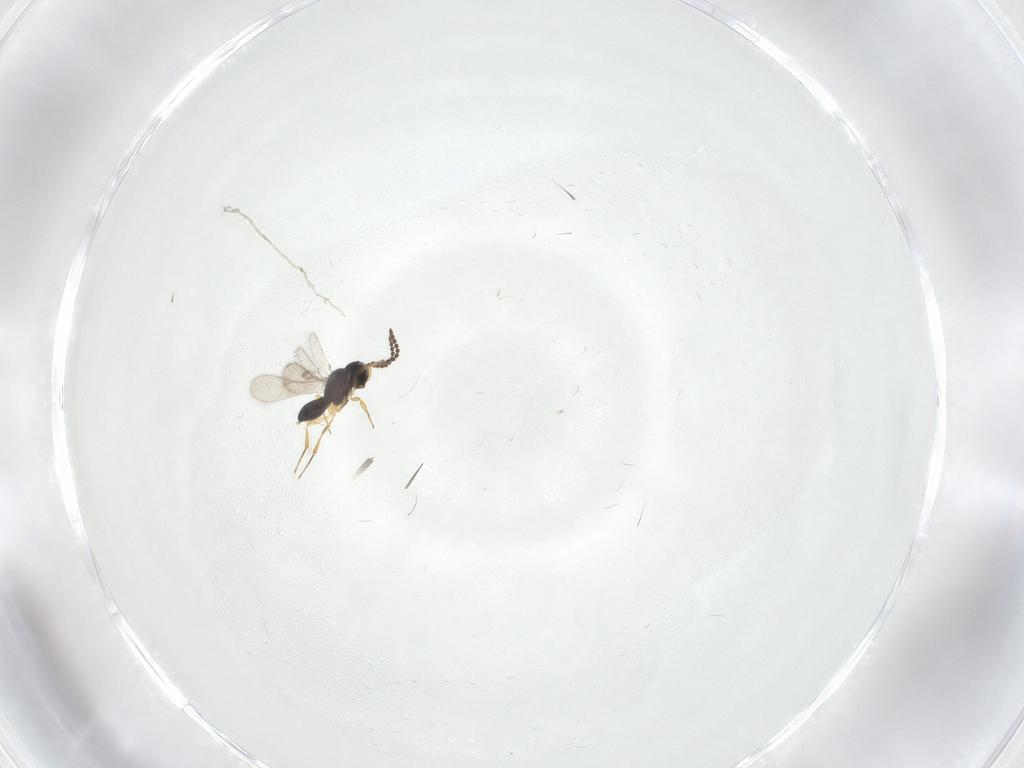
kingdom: Animalia
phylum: Arthropoda
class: Insecta
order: Hymenoptera
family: Scelionidae
